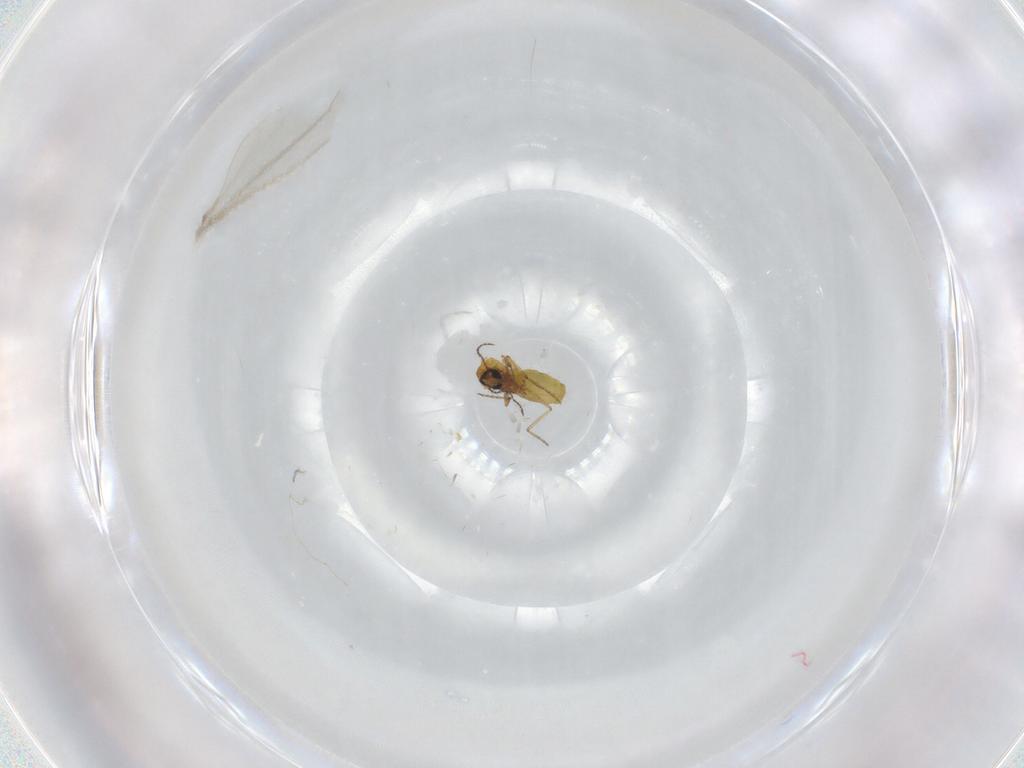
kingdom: Animalia
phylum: Arthropoda
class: Insecta
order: Diptera
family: Ceratopogonidae
